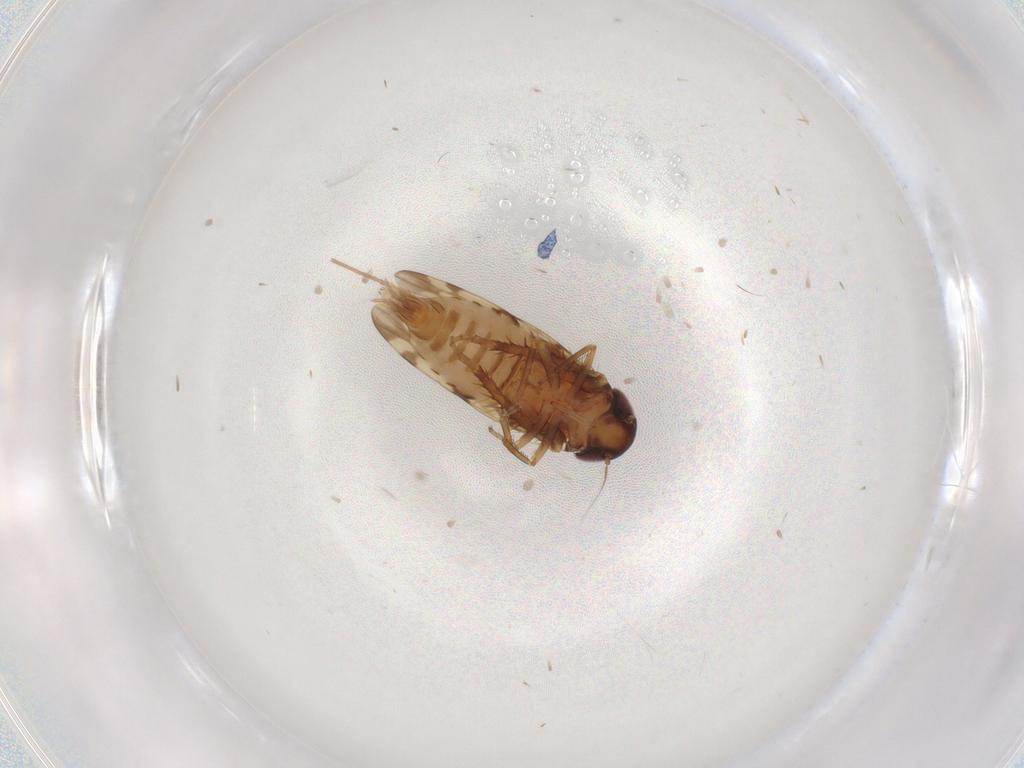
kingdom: Animalia
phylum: Arthropoda
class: Insecta
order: Hemiptera
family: Cicadellidae
